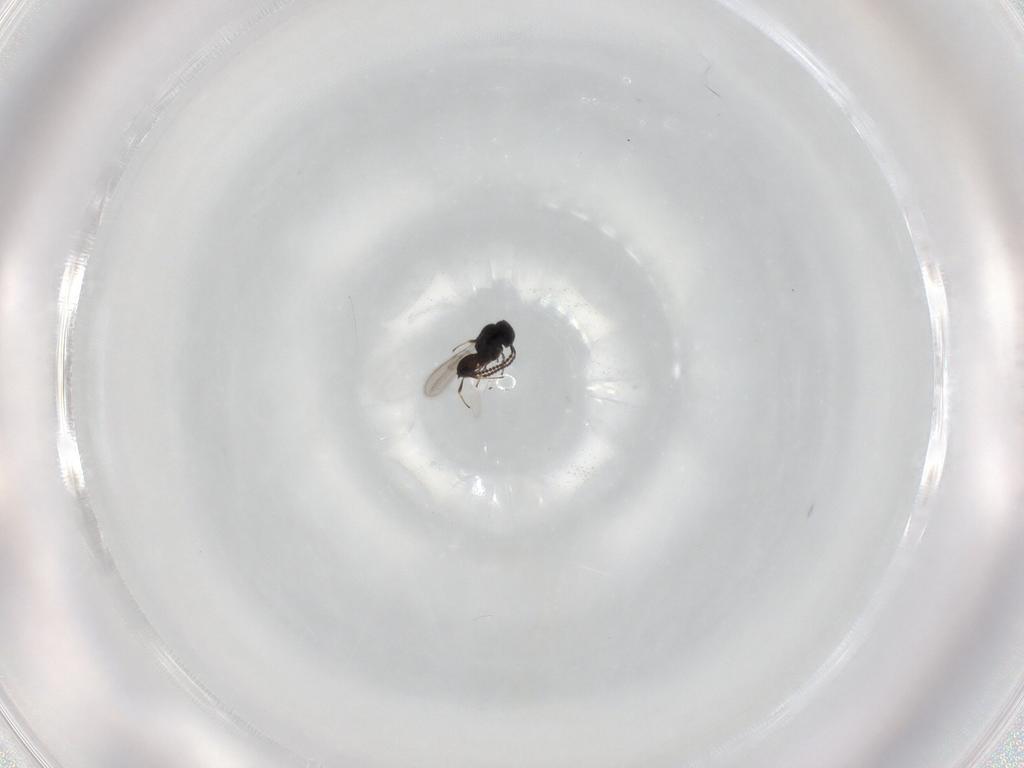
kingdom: Animalia
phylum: Arthropoda
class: Insecta
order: Hymenoptera
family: Scelionidae
